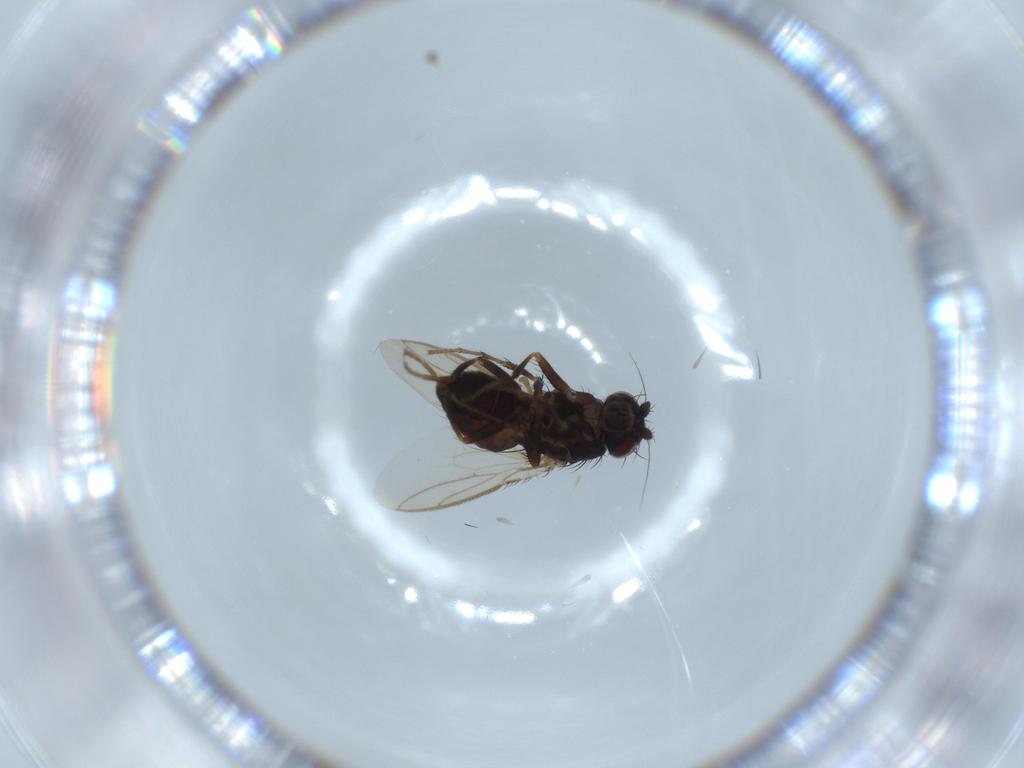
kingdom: Animalia
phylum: Arthropoda
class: Insecta
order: Diptera
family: Sphaeroceridae
